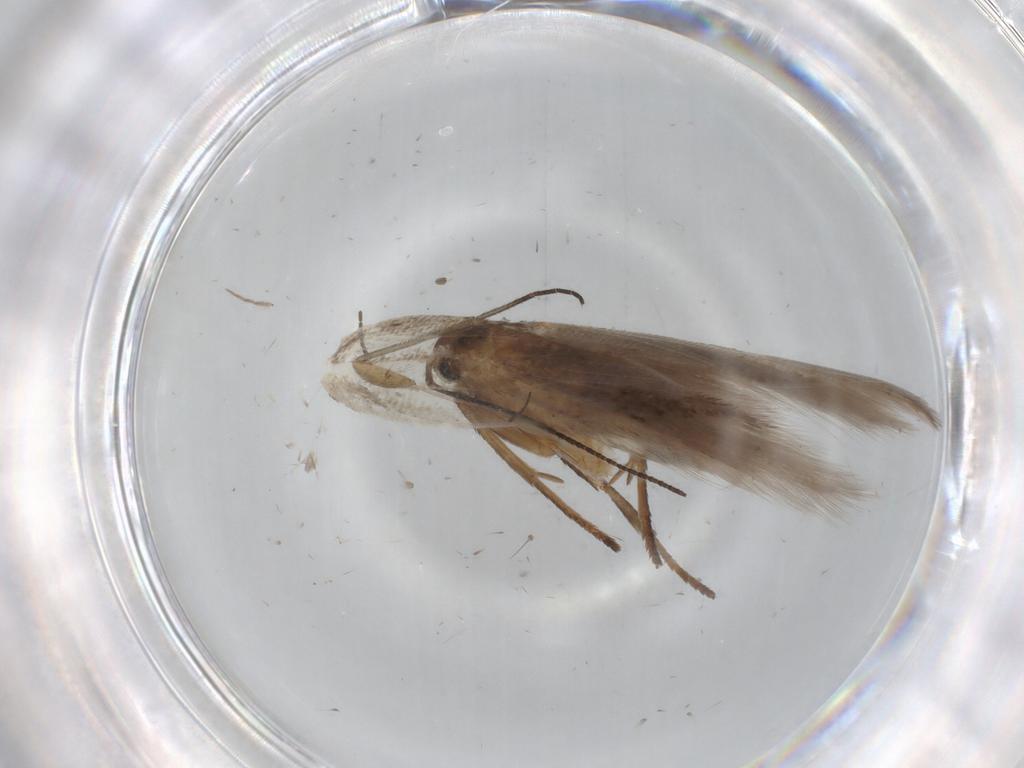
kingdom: Animalia
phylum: Arthropoda
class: Insecta
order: Lepidoptera
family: Gelechiidae
